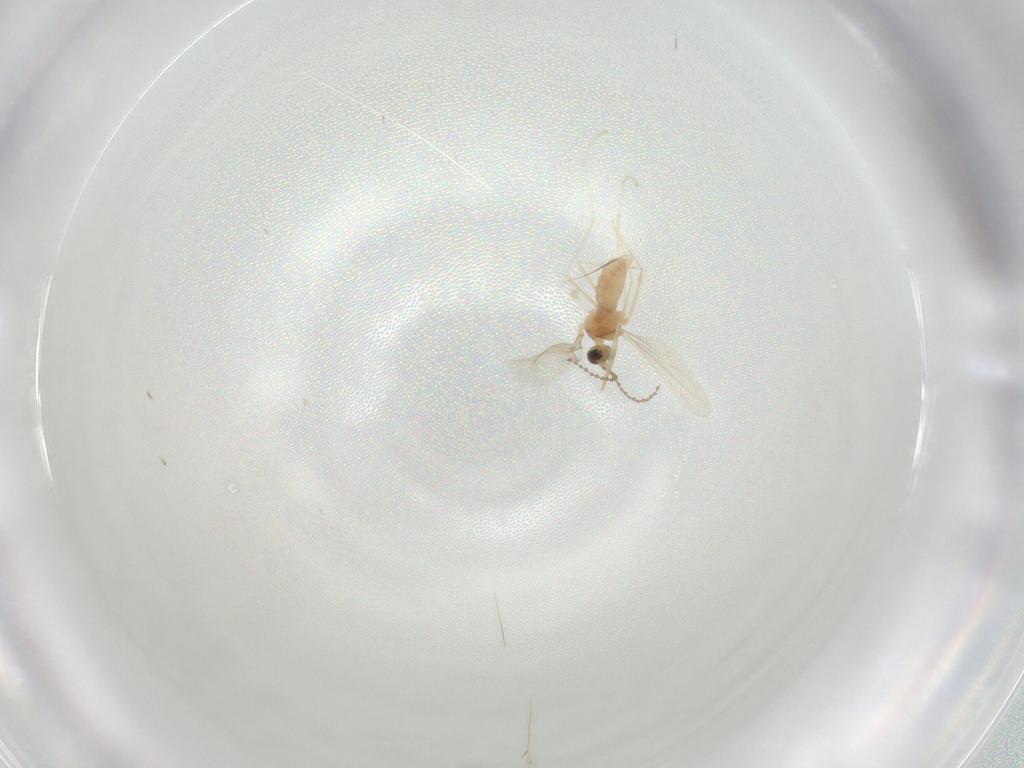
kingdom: Animalia
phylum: Arthropoda
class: Insecta
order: Diptera
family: Cecidomyiidae
